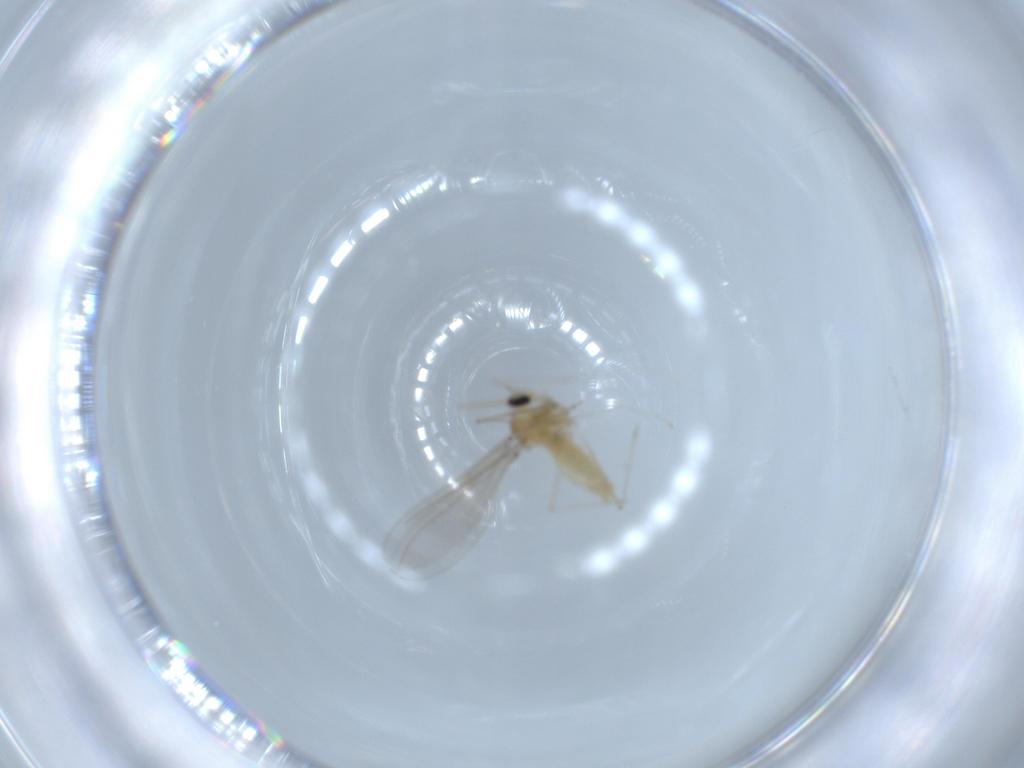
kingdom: Animalia
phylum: Arthropoda
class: Insecta
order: Diptera
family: Cecidomyiidae
